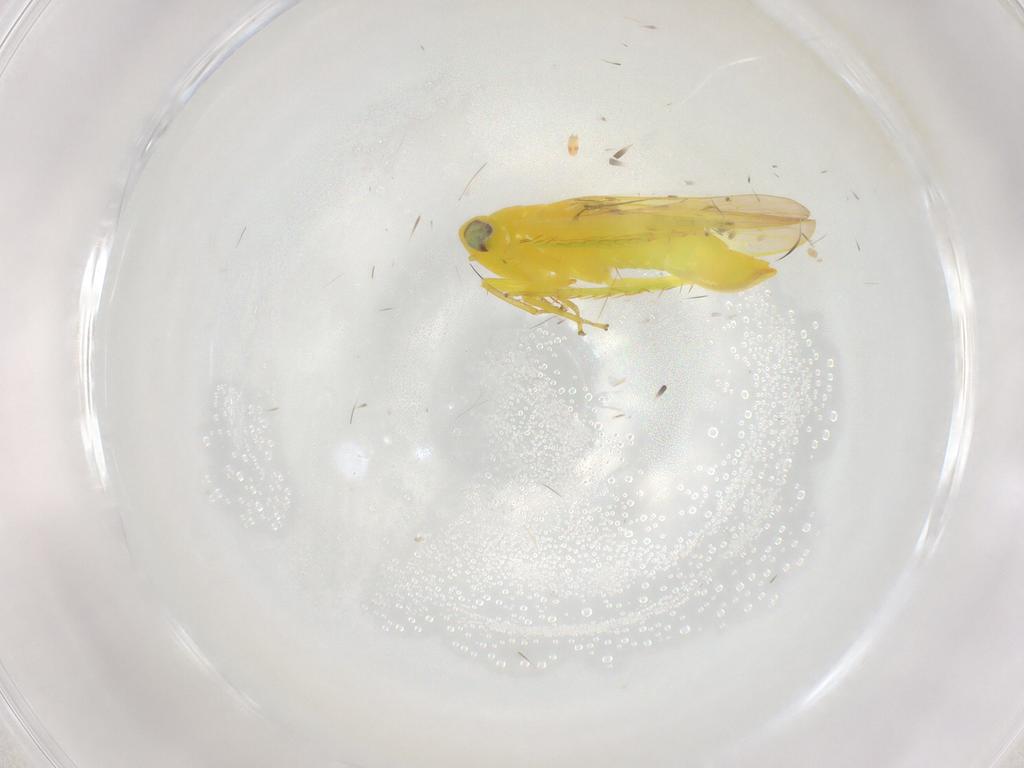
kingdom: Animalia
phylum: Arthropoda
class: Insecta
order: Hemiptera
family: Cicadellidae
